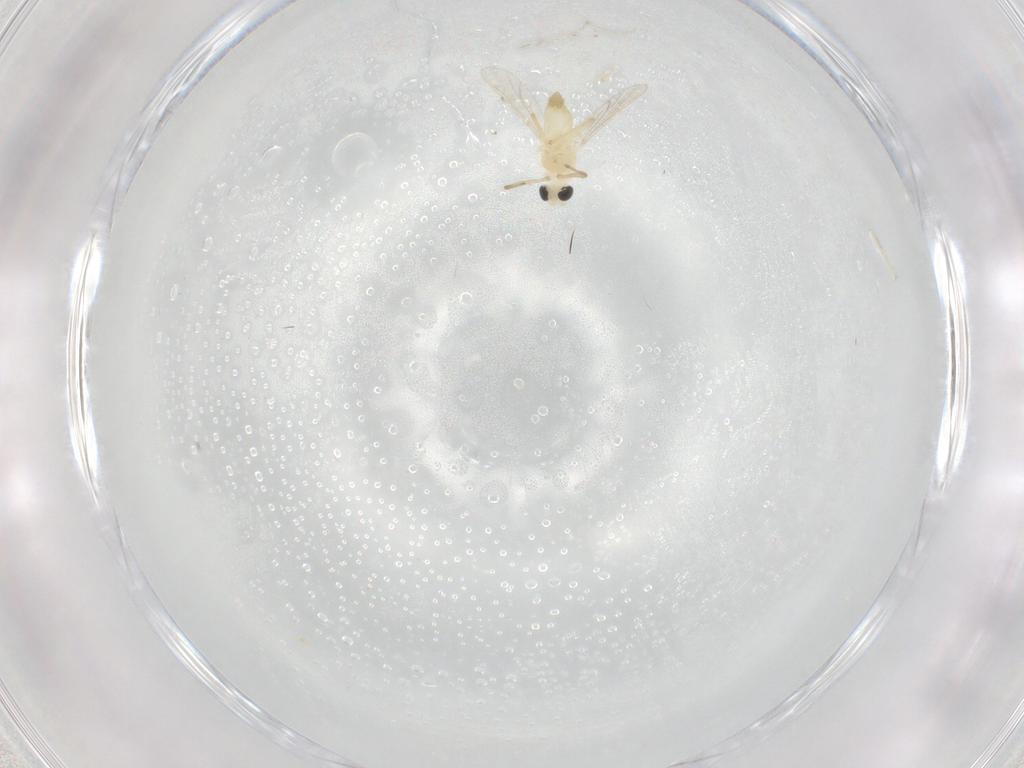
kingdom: Animalia
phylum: Arthropoda
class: Insecta
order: Diptera
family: Chironomidae
